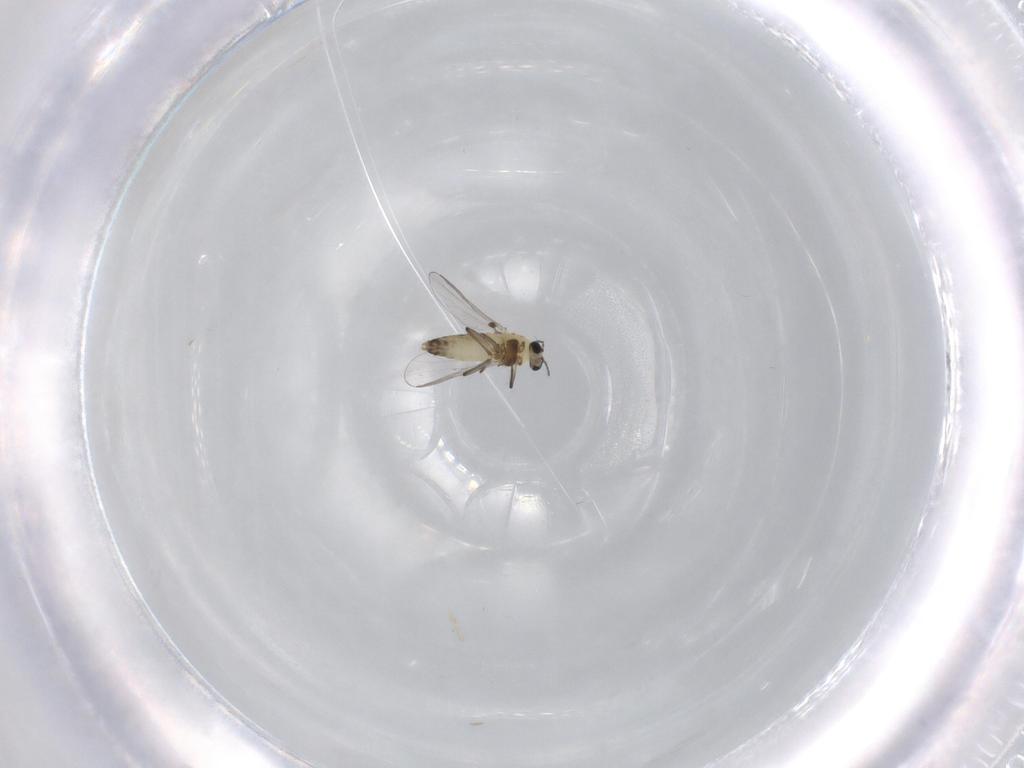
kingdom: Animalia
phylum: Arthropoda
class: Insecta
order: Diptera
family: Chironomidae
